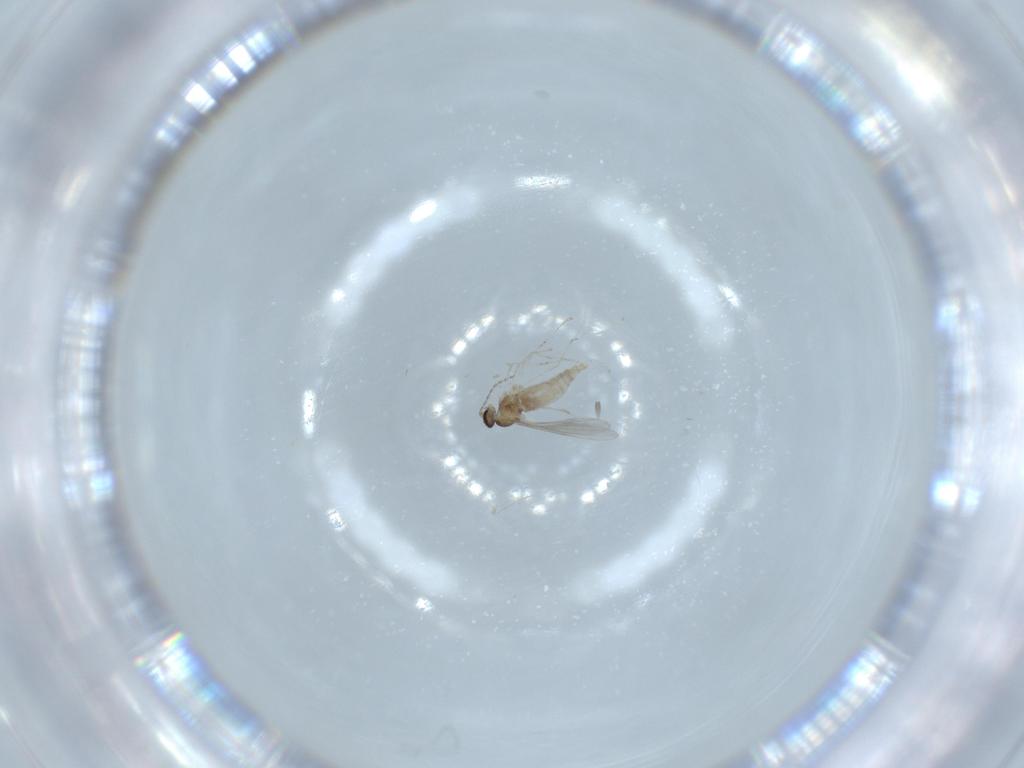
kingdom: Animalia
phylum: Arthropoda
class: Insecta
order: Diptera
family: Cecidomyiidae
